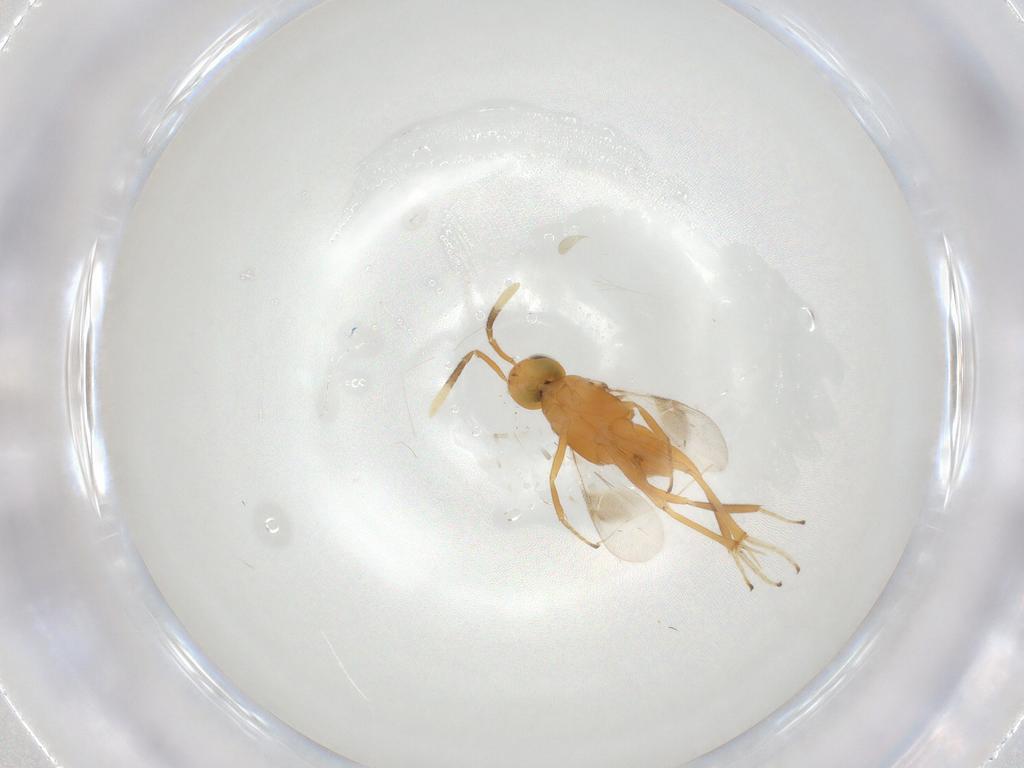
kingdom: Animalia
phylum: Arthropoda
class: Insecta
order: Hymenoptera
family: Encyrtidae
